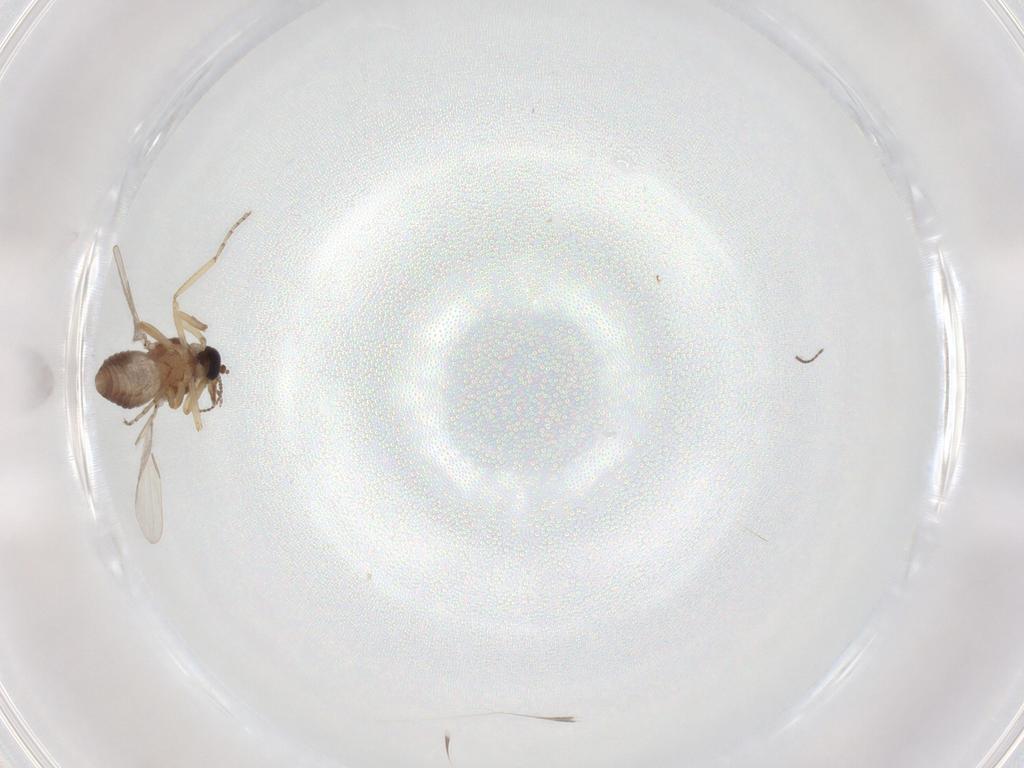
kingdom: Animalia
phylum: Arthropoda
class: Insecta
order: Diptera
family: Ceratopogonidae
